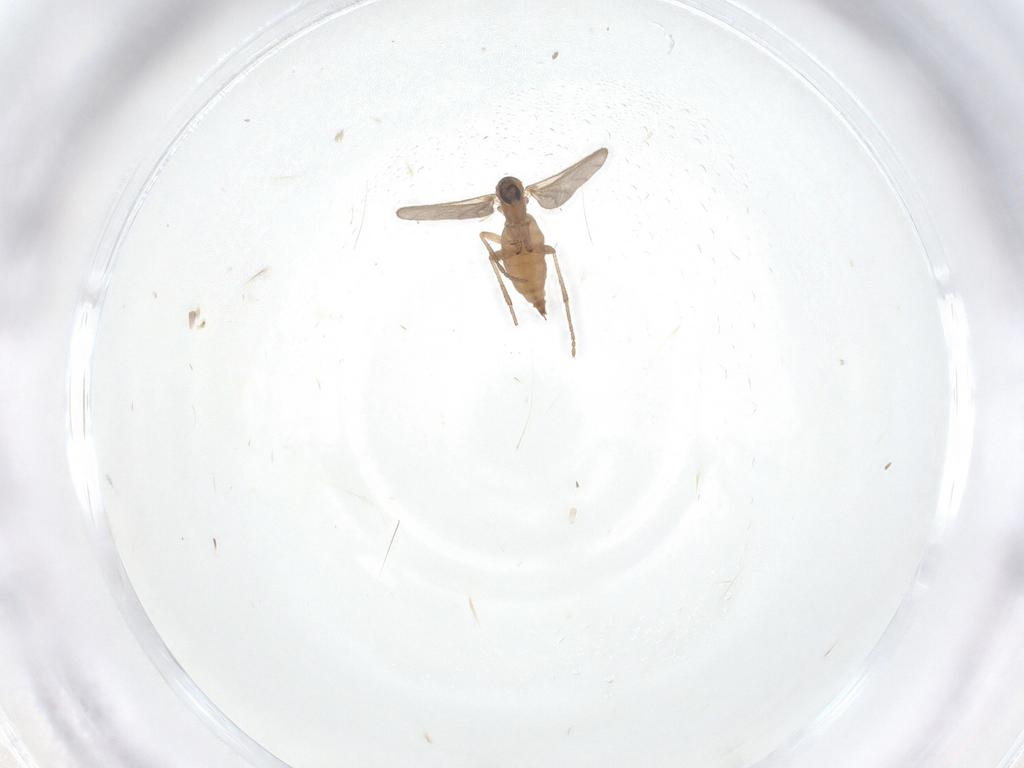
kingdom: Animalia
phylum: Arthropoda
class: Insecta
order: Diptera
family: Sciaridae
